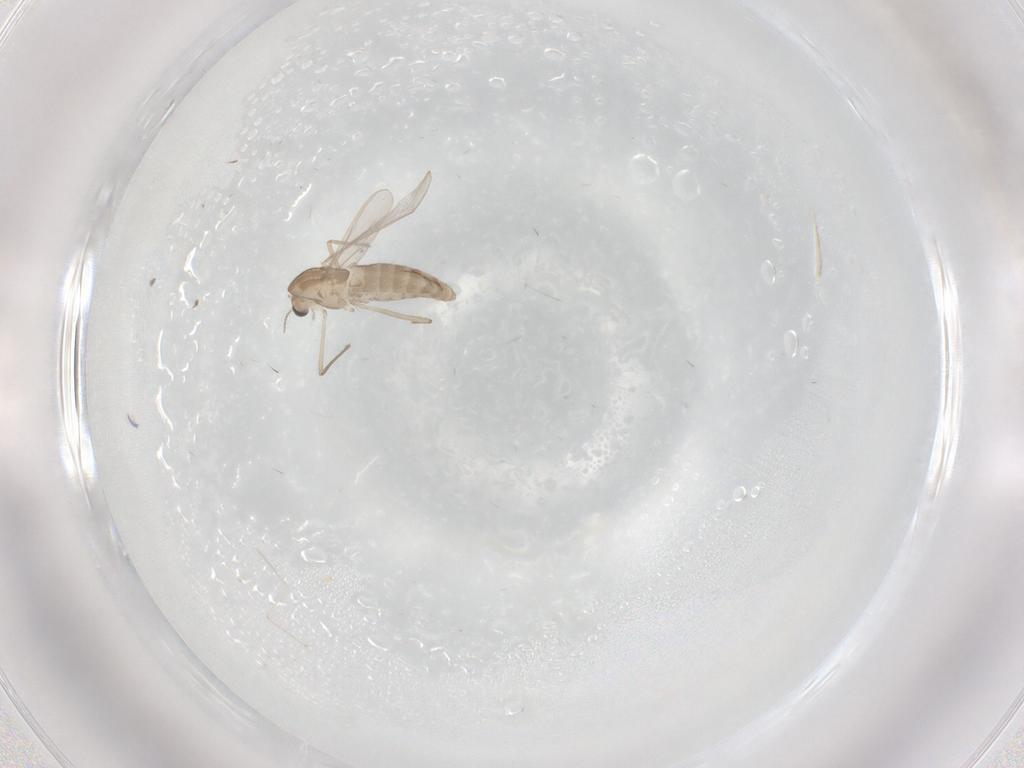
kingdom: Animalia
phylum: Arthropoda
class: Insecta
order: Diptera
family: Chironomidae
